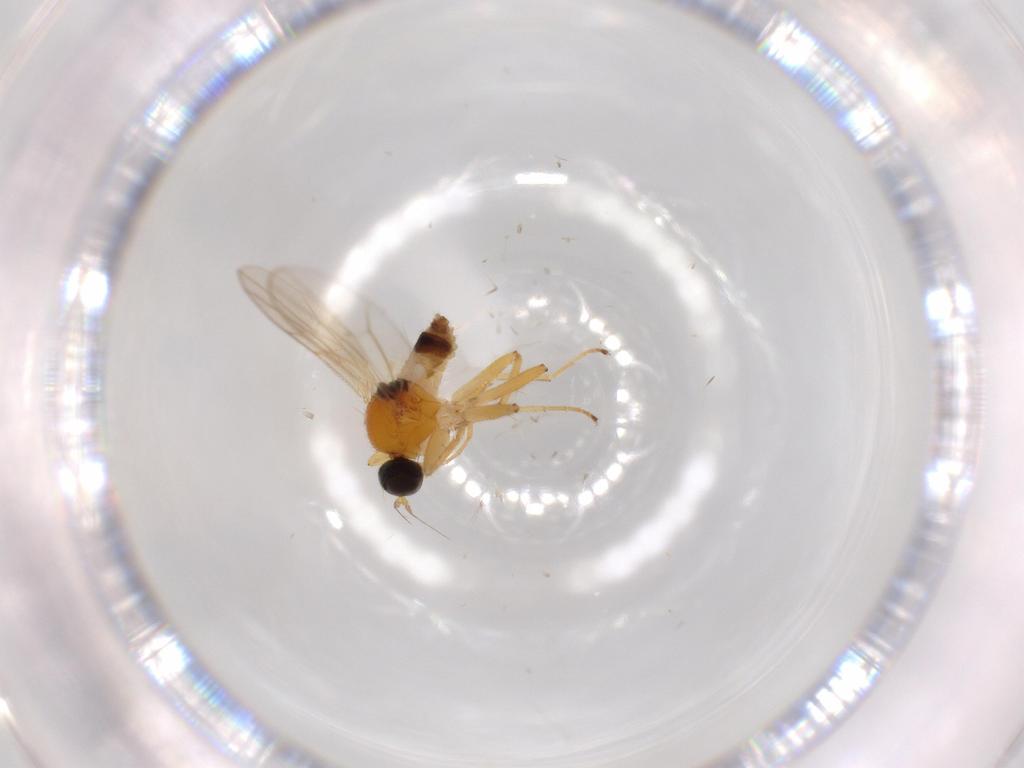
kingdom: Animalia
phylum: Arthropoda
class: Insecta
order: Diptera
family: Hybotidae
